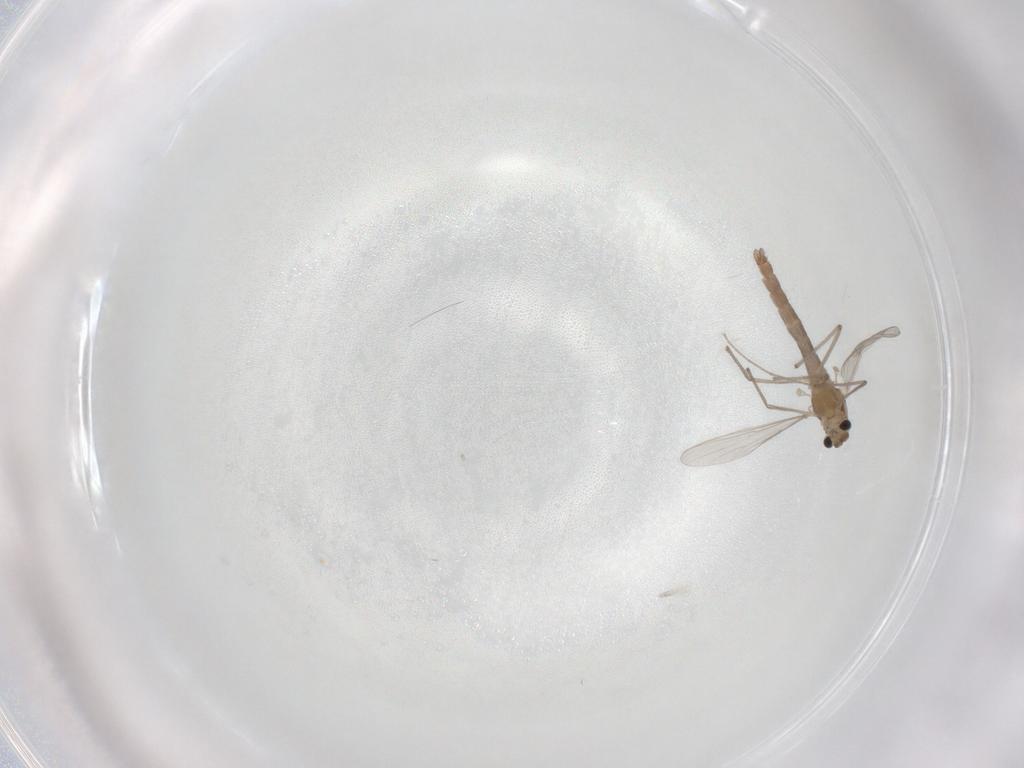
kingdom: Animalia
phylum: Arthropoda
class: Insecta
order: Diptera
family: Chironomidae
